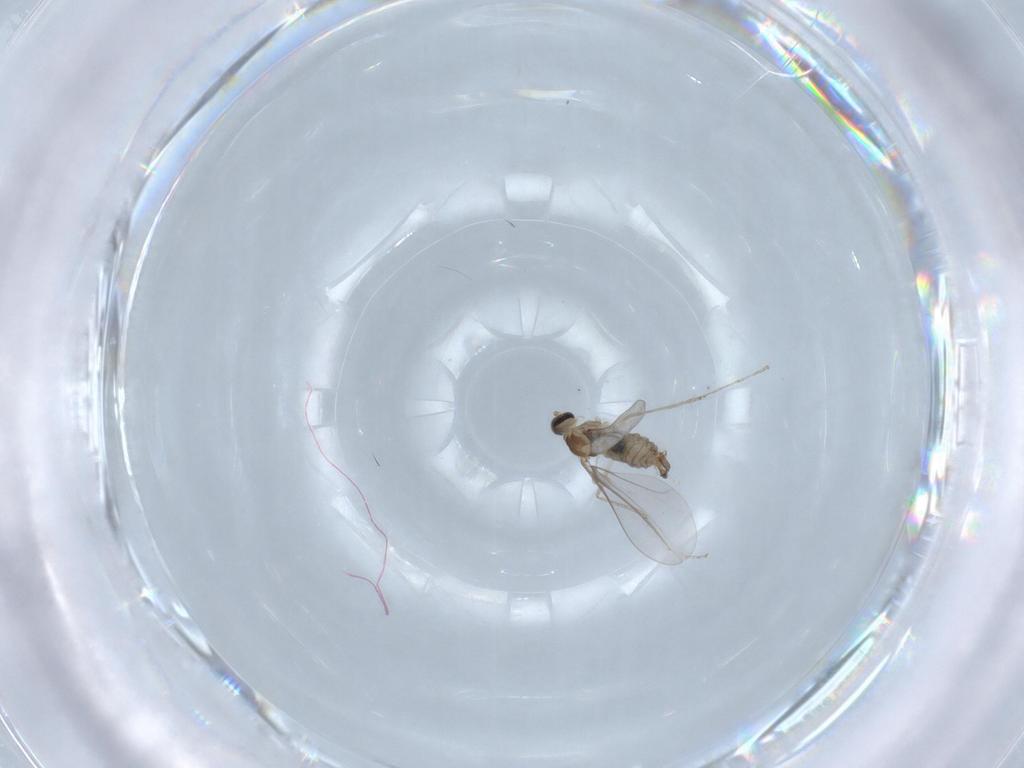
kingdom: Animalia
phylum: Arthropoda
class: Insecta
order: Diptera
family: Cecidomyiidae
